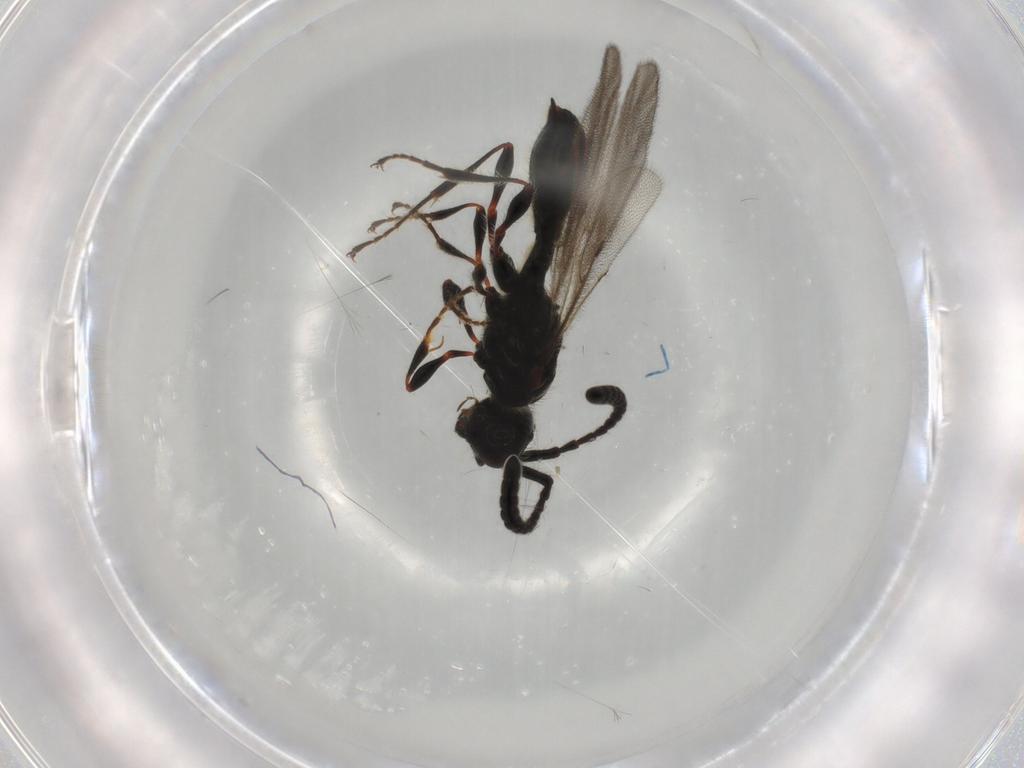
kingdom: Animalia
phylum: Arthropoda
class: Insecta
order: Hymenoptera
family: Diapriidae
